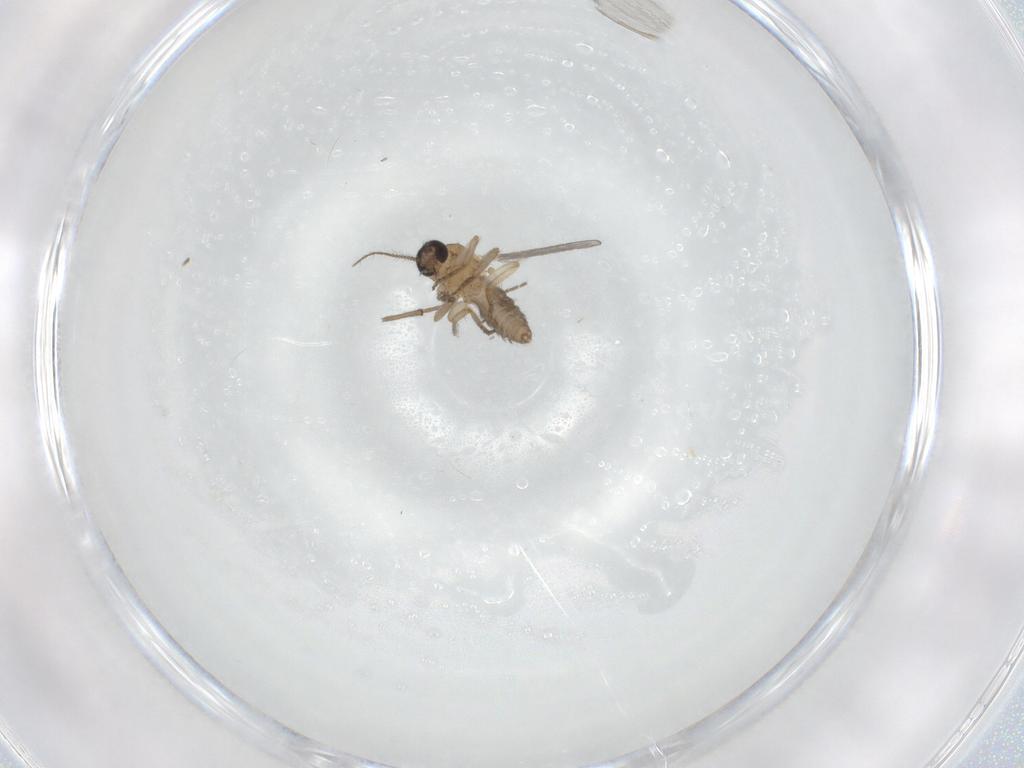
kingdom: Animalia
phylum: Arthropoda
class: Insecta
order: Diptera
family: Ceratopogonidae
